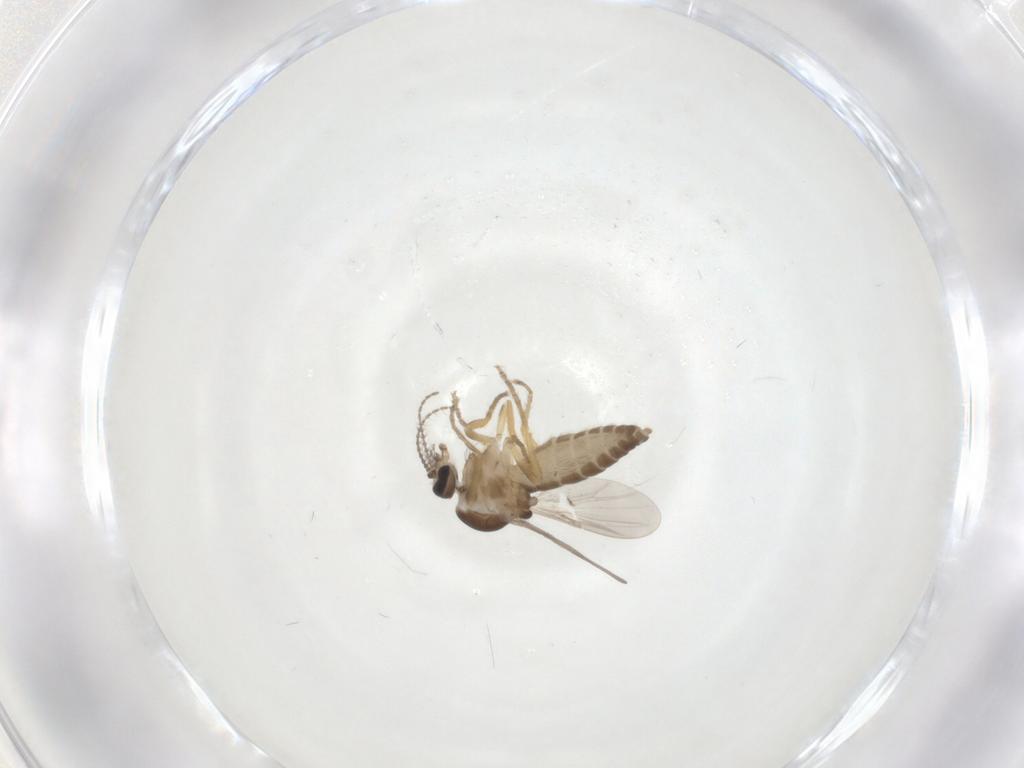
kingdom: Animalia
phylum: Arthropoda
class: Insecta
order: Diptera
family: Ceratopogonidae
